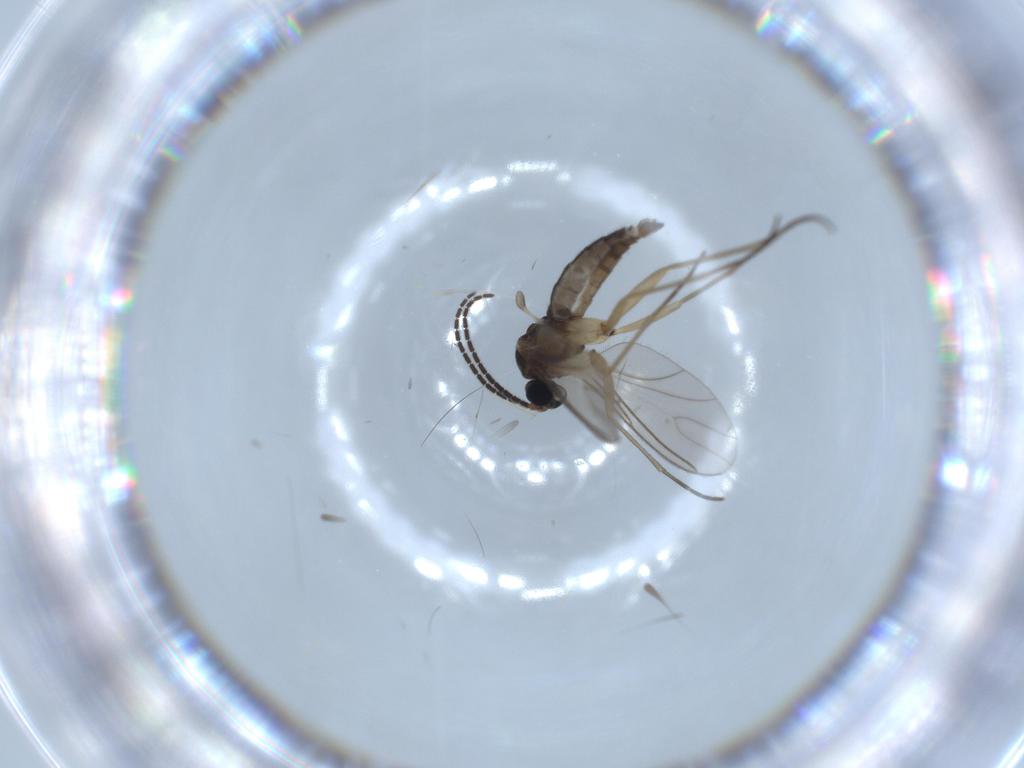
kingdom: Animalia
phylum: Arthropoda
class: Insecta
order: Diptera
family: Sciaridae
